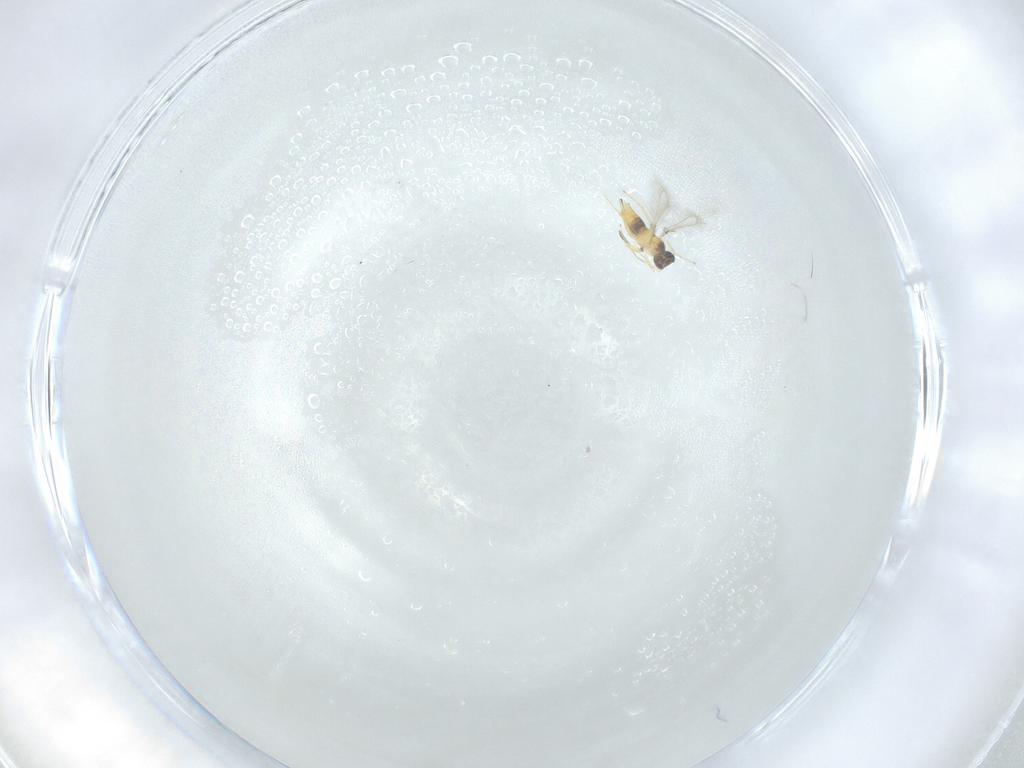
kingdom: Animalia
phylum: Arthropoda
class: Insecta
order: Hymenoptera
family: Mymaridae
